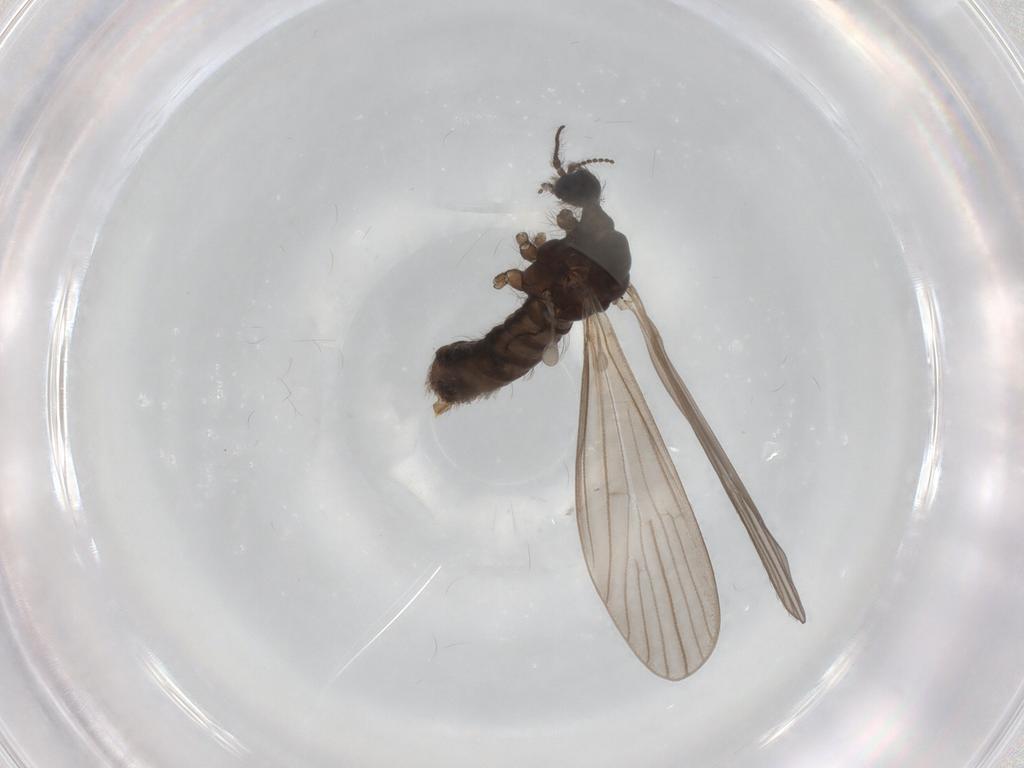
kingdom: Animalia
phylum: Arthropoda
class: Insecta
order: Diptera
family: Limoniidae
